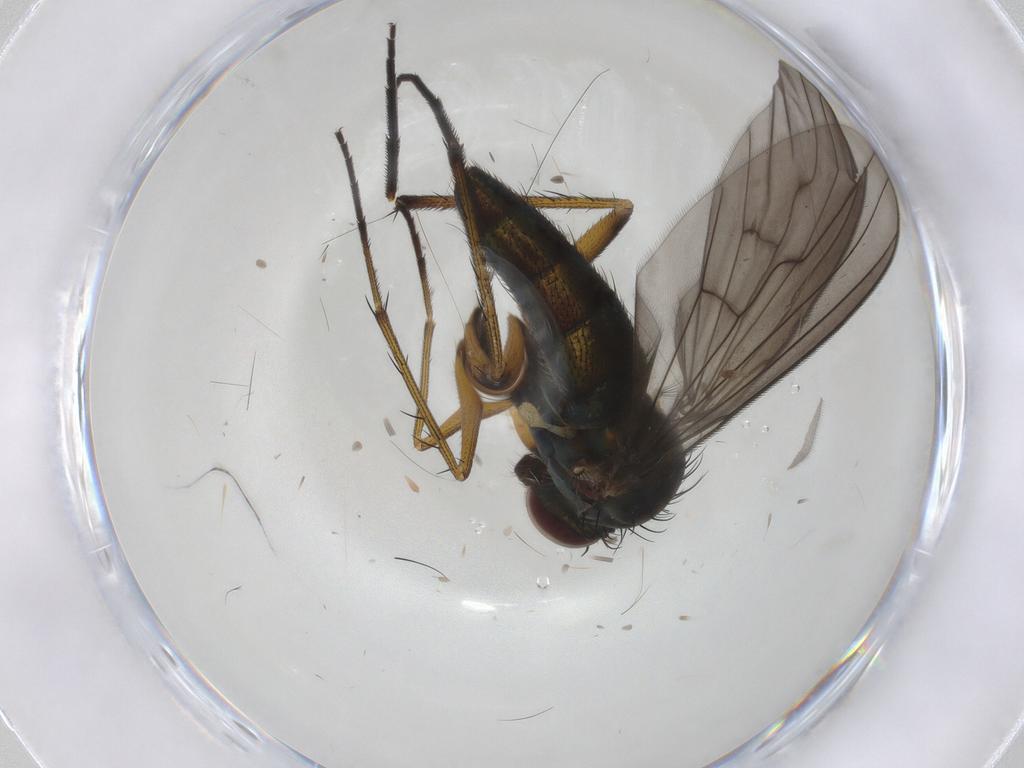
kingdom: Animalia
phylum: Arthropoda
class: Insecta
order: Diptera
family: Dolichopodidae
